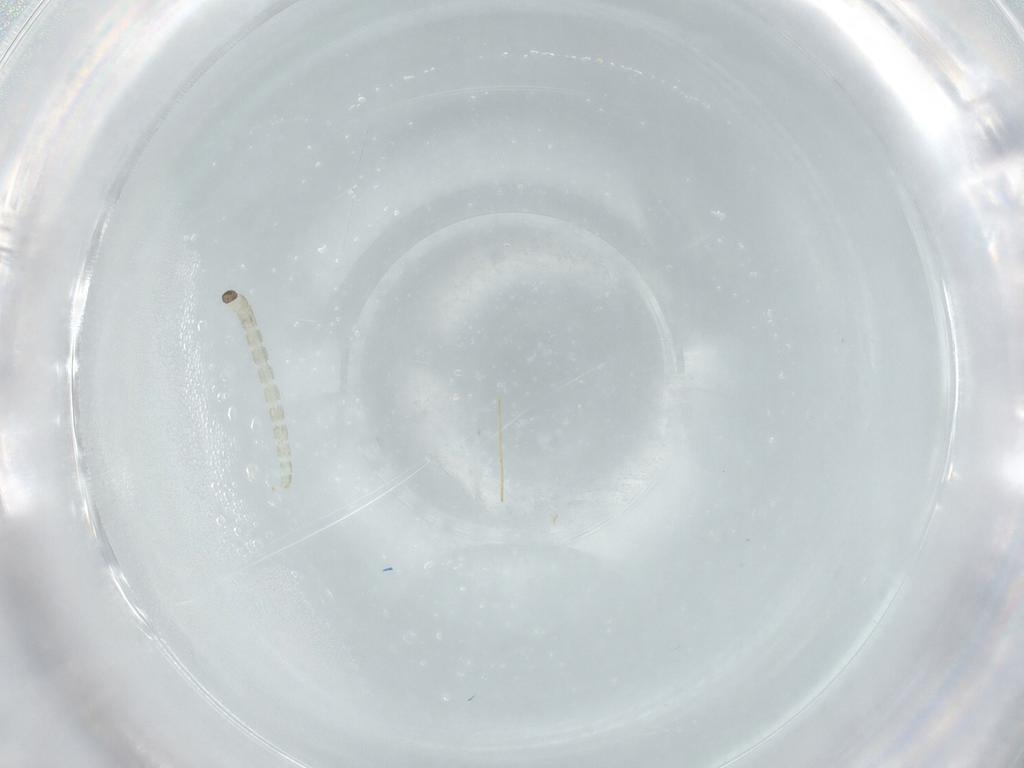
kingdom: Animalia
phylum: Arthropoda
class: Insecta
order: Diptera
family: Chironomidae
